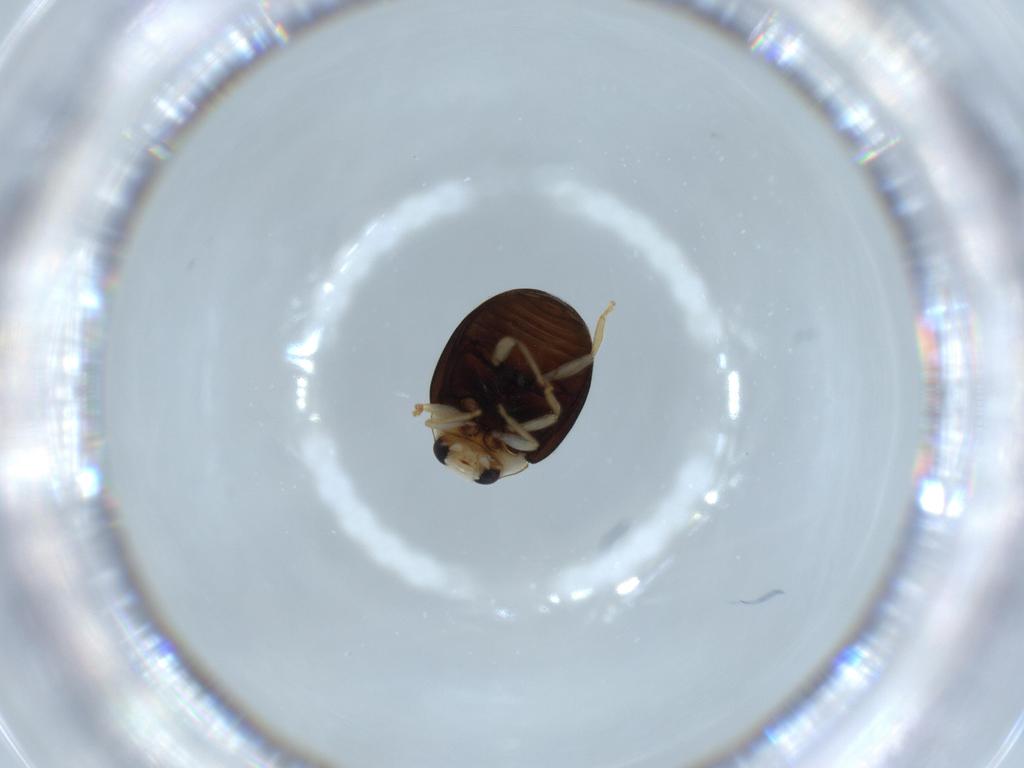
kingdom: Animalia
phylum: Arthropoda
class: Insecta
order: Coleoptera
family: Coccinellidae
